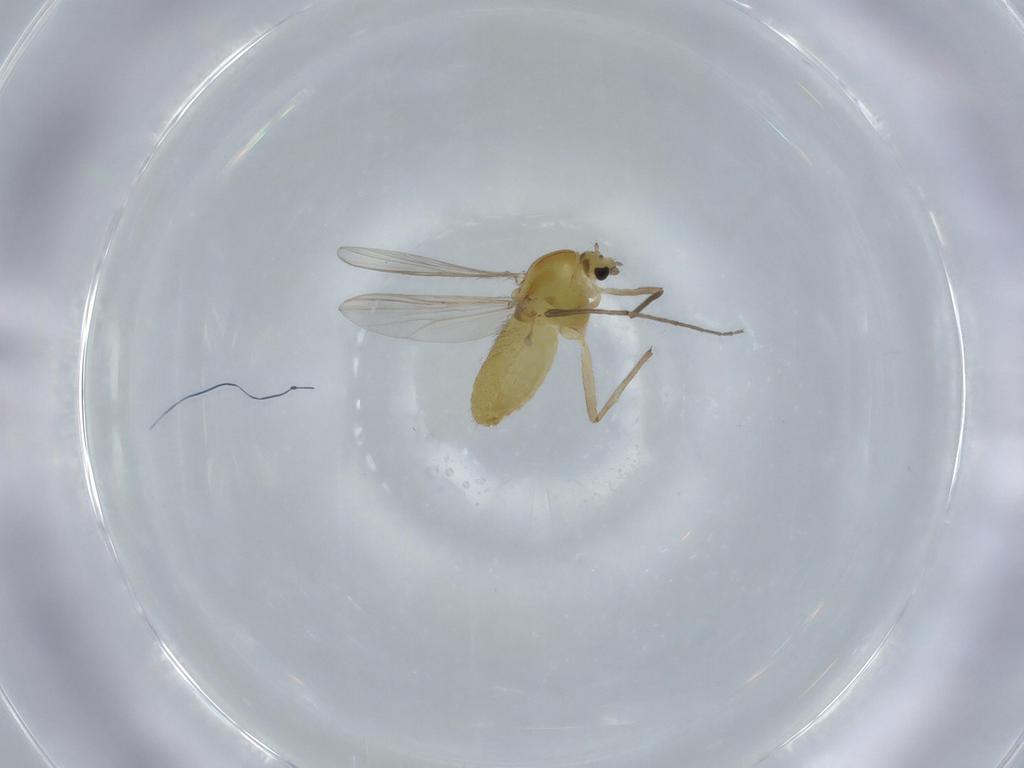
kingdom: Animalia
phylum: Arthropoda
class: Insecta
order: Diptera
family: Chironomidae
